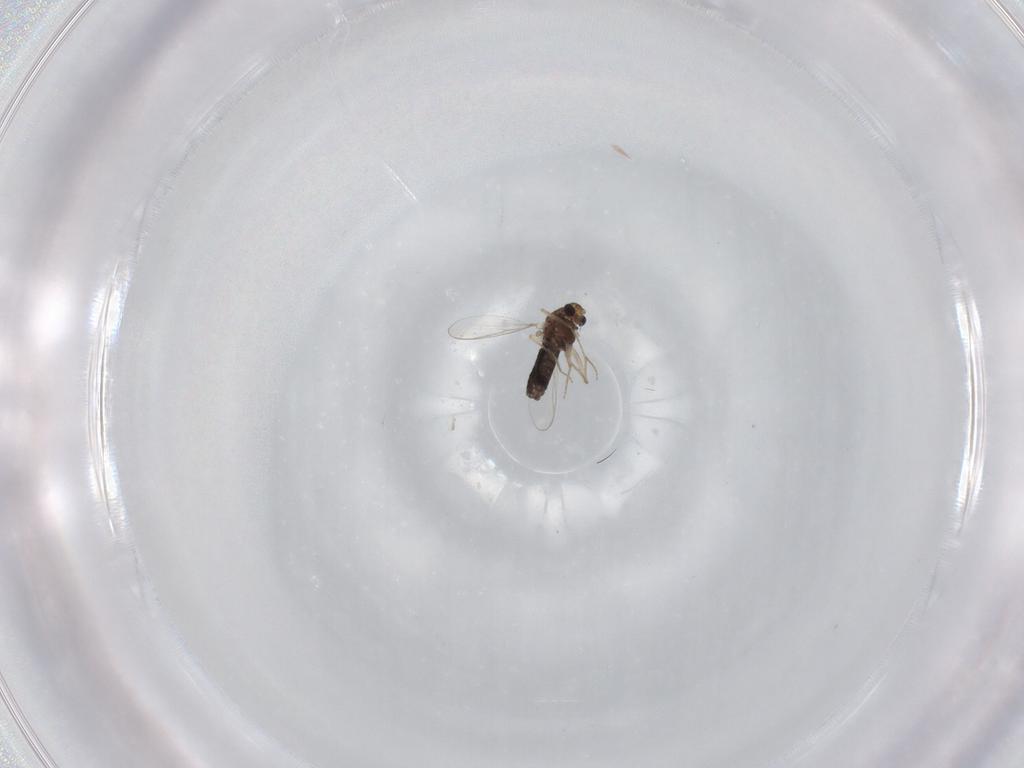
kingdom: Animalia
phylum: Arthropoda
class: Insecta
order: Diptera
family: Chironomidae
